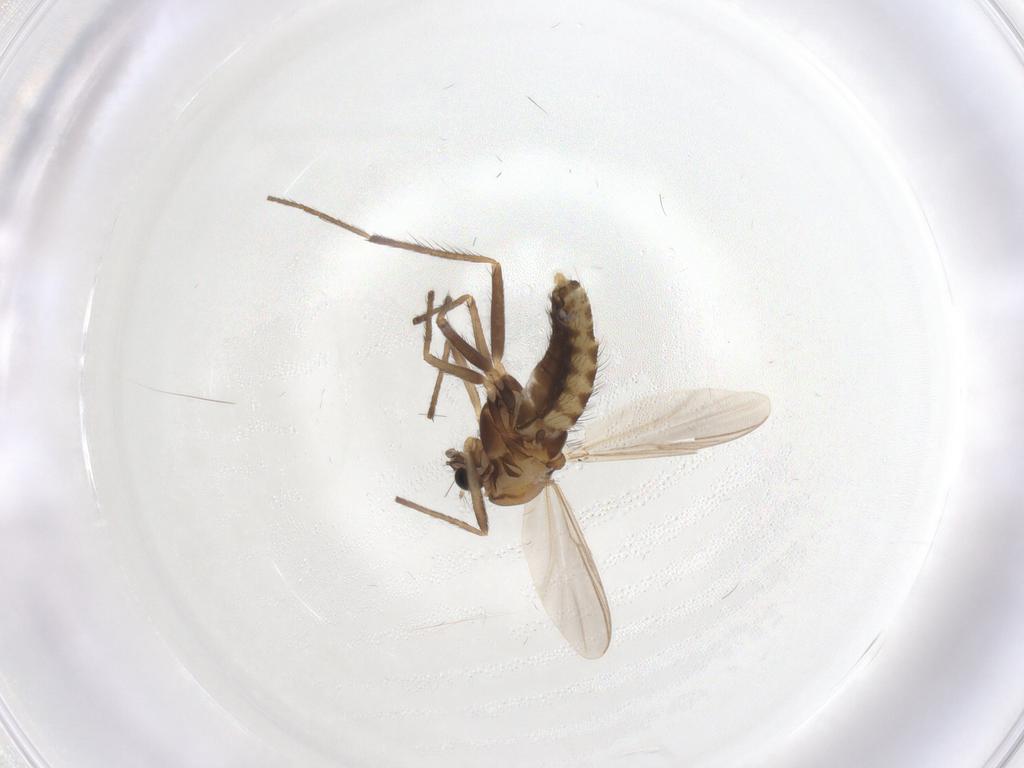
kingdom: Animalia
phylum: Arthropoda
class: Insecta
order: Diptera
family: Chironomidae
